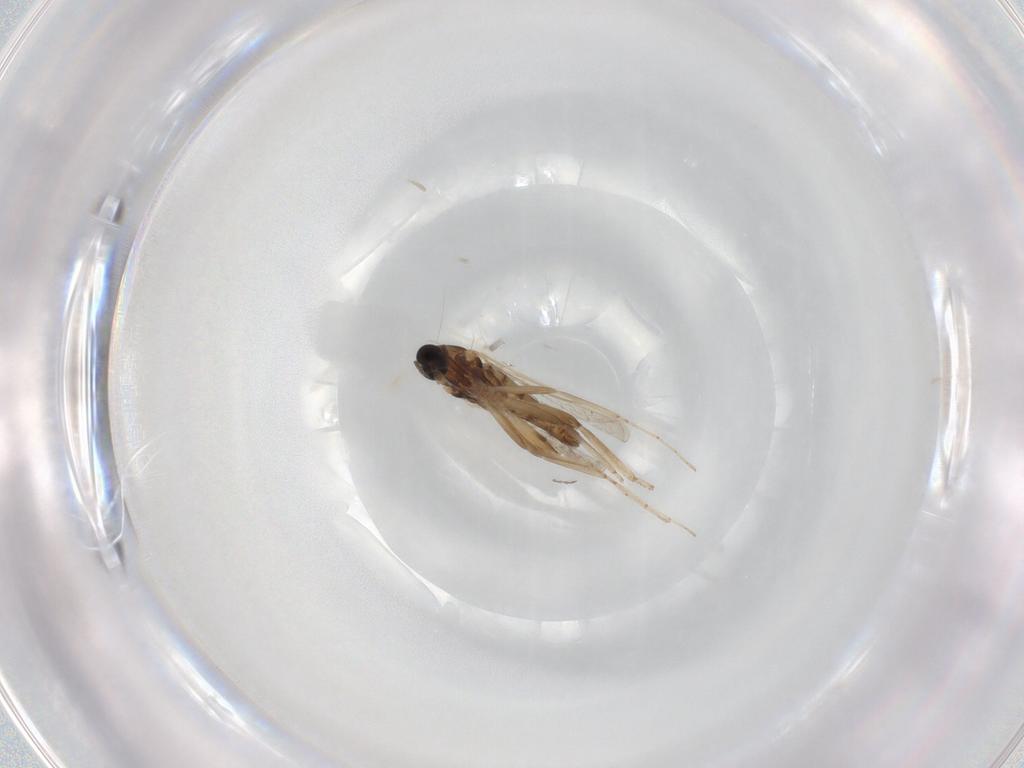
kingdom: Animalia
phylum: Arthropoda
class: Insecta
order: Diptera
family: Cecidomyiidae
